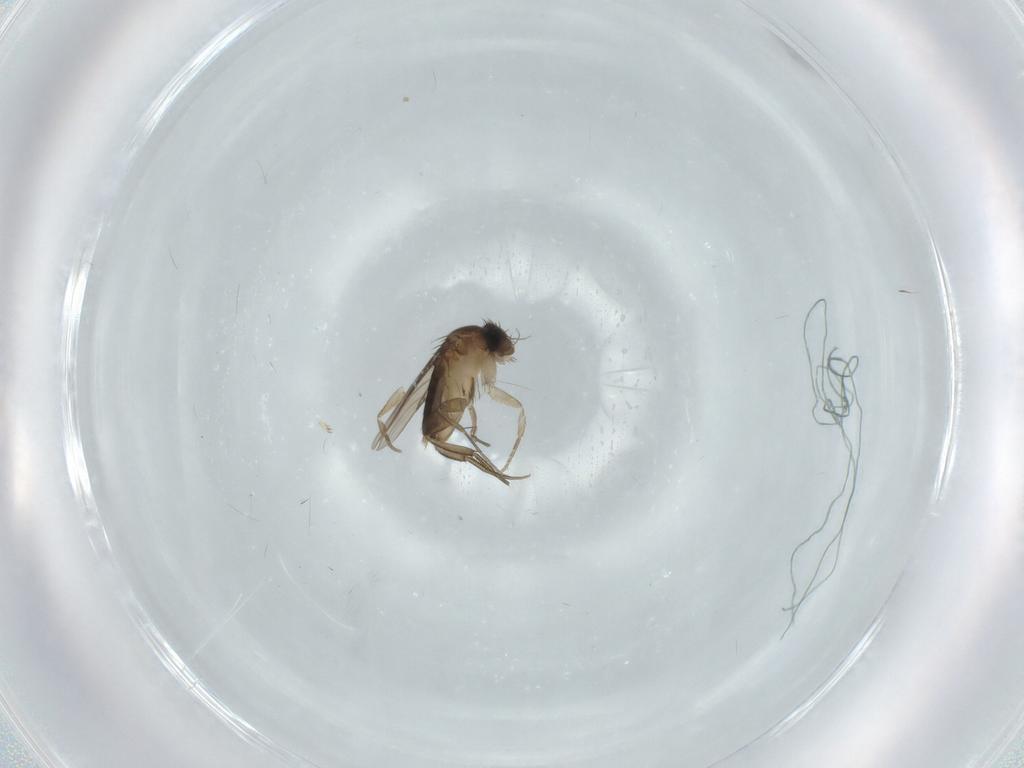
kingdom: Animalia
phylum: Arthropoda
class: Insecta
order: Diptera
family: Phoridae
